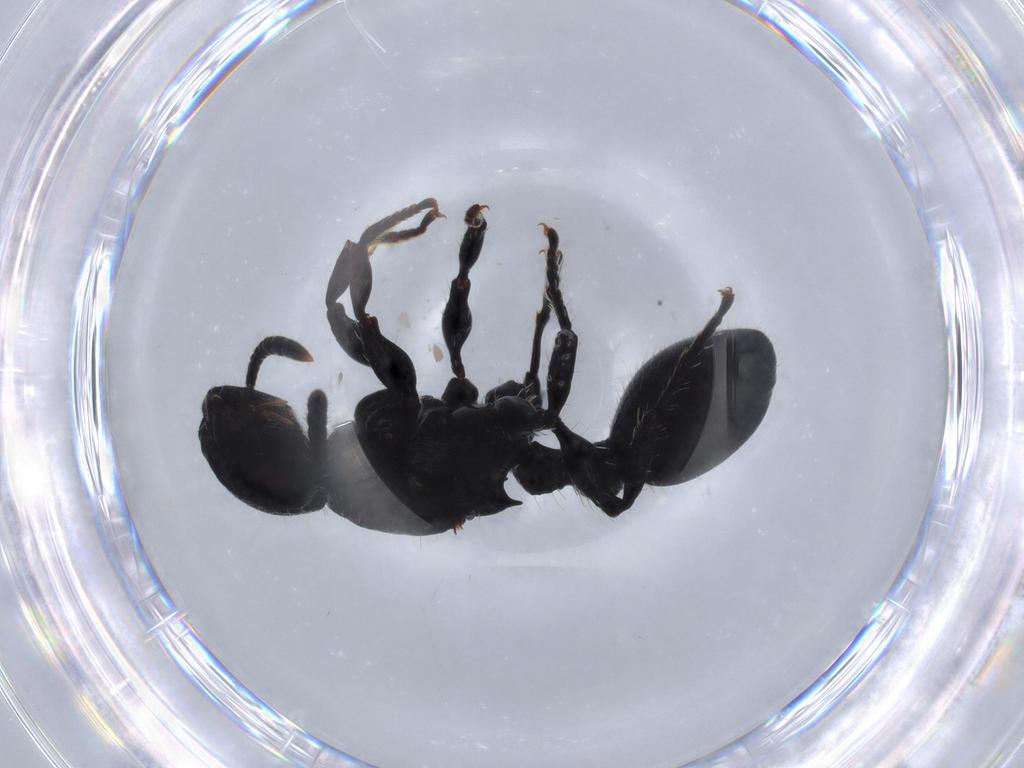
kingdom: Animalia
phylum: Arthropoda
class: Insecta
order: Hymenoptera
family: Formicidae
